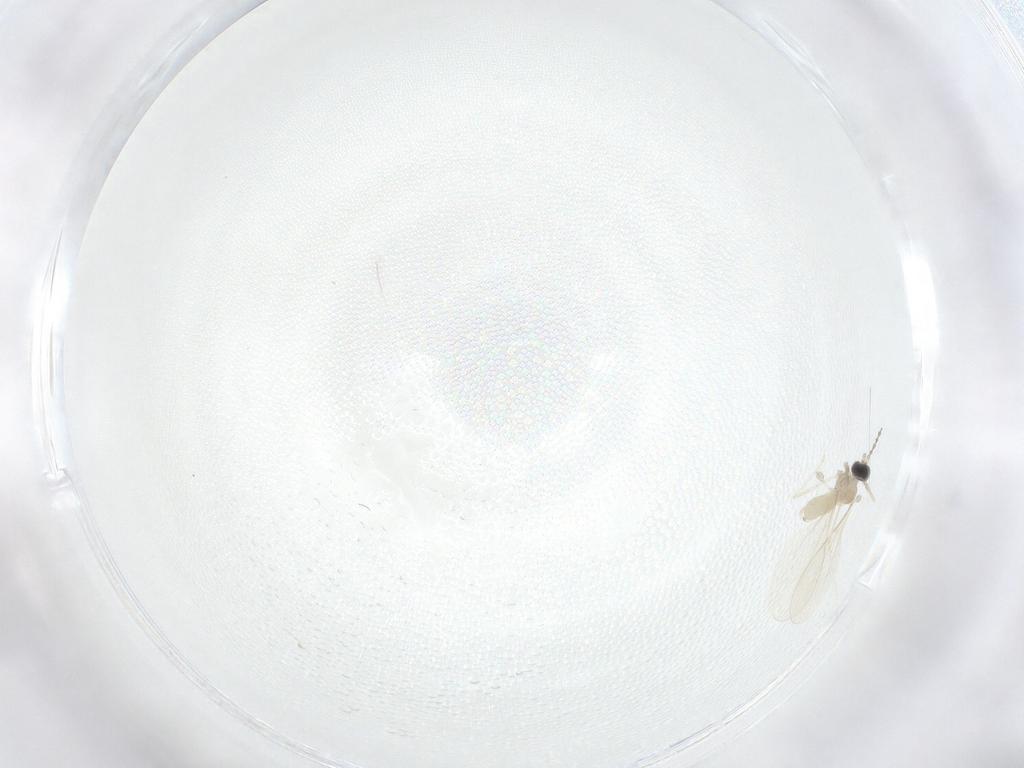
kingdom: Animalia
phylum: Arthropoda
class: Insecta
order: Diptera
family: Cecidomyiidae
